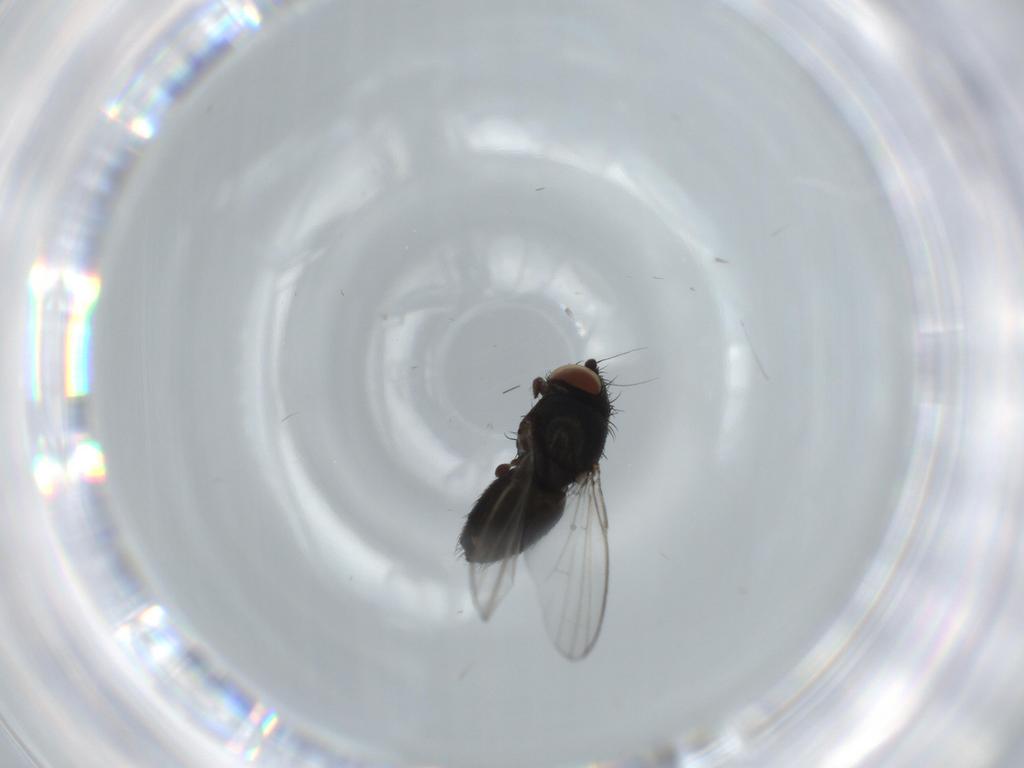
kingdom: Animalia
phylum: Arthropoda
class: Insecta
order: Diptera
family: Milichiidae
